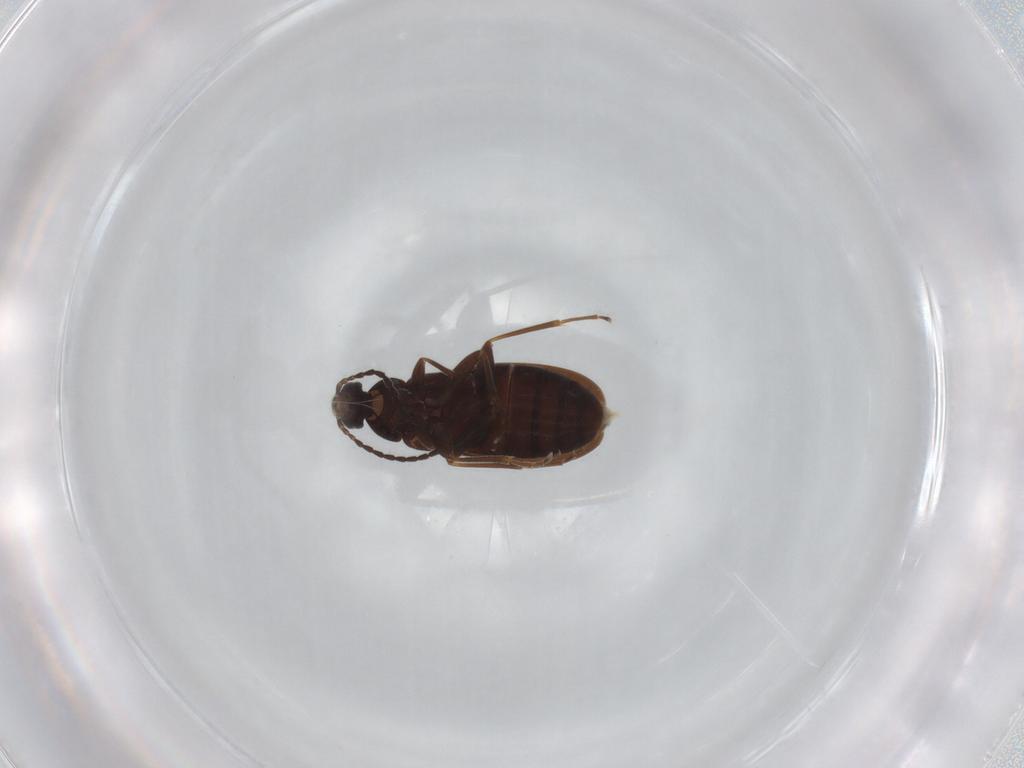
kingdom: Animalia
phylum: Arthropoda
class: Insecta
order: Coleoptera
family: Scraptiidae
